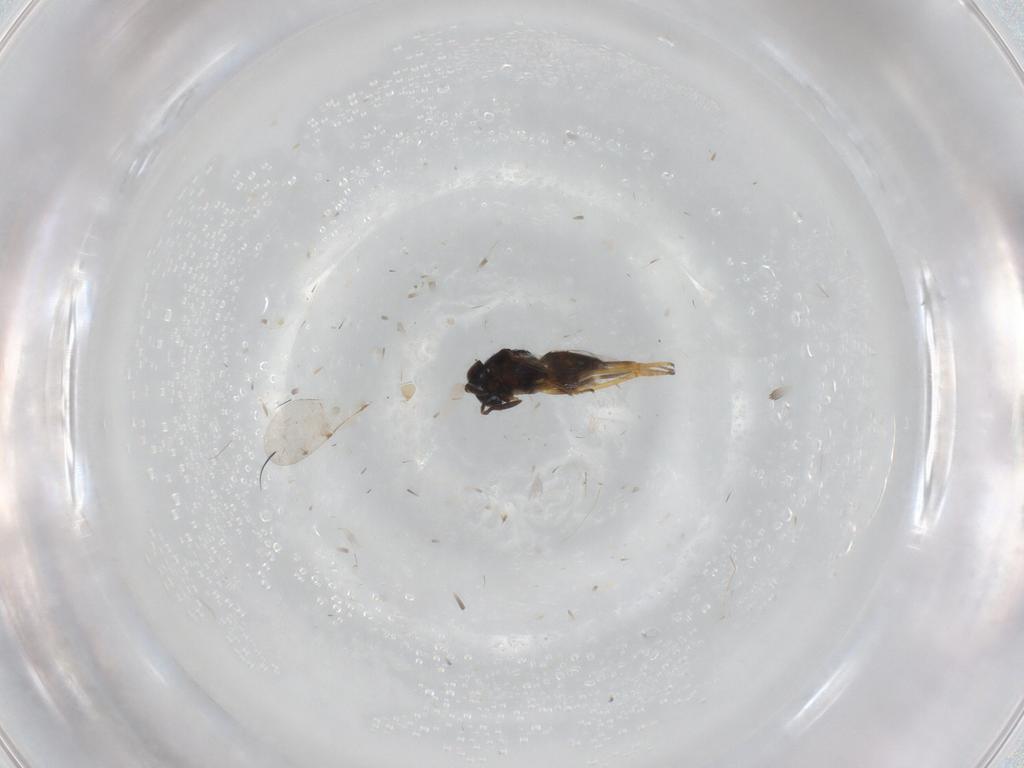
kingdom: Animalia
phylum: Arthropoda
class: Insecta
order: Hymenoptera
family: Encyrtidae
